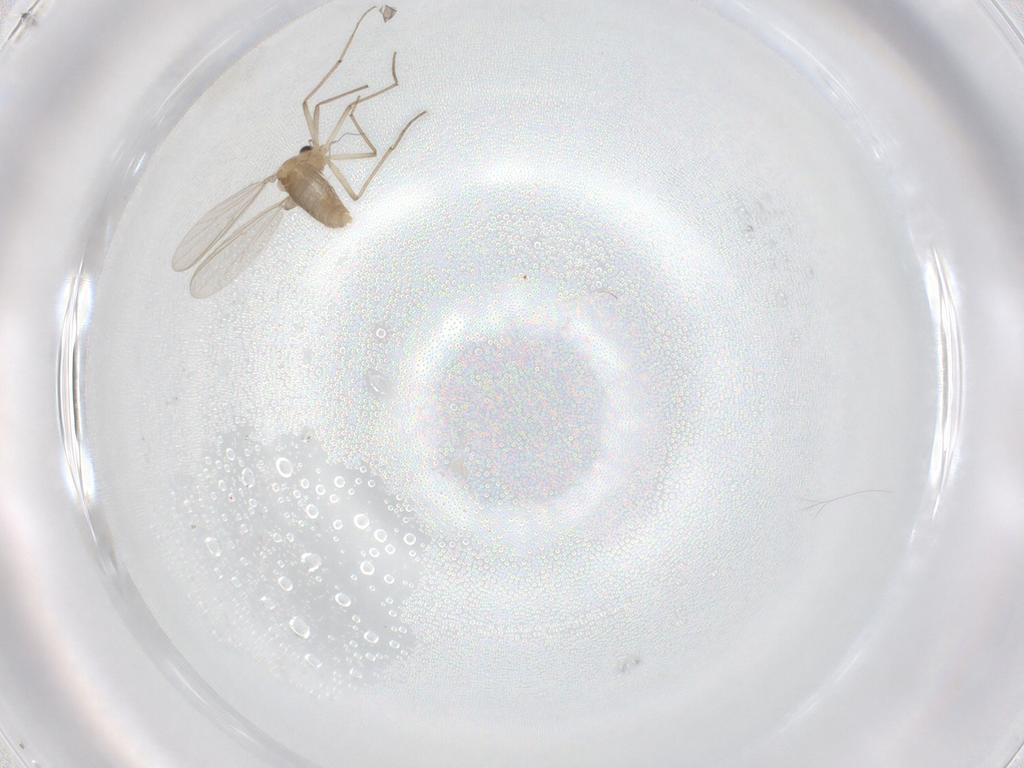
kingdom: Animalia
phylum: Arthropoda
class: Insecta
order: Diptera
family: Chironomidae
